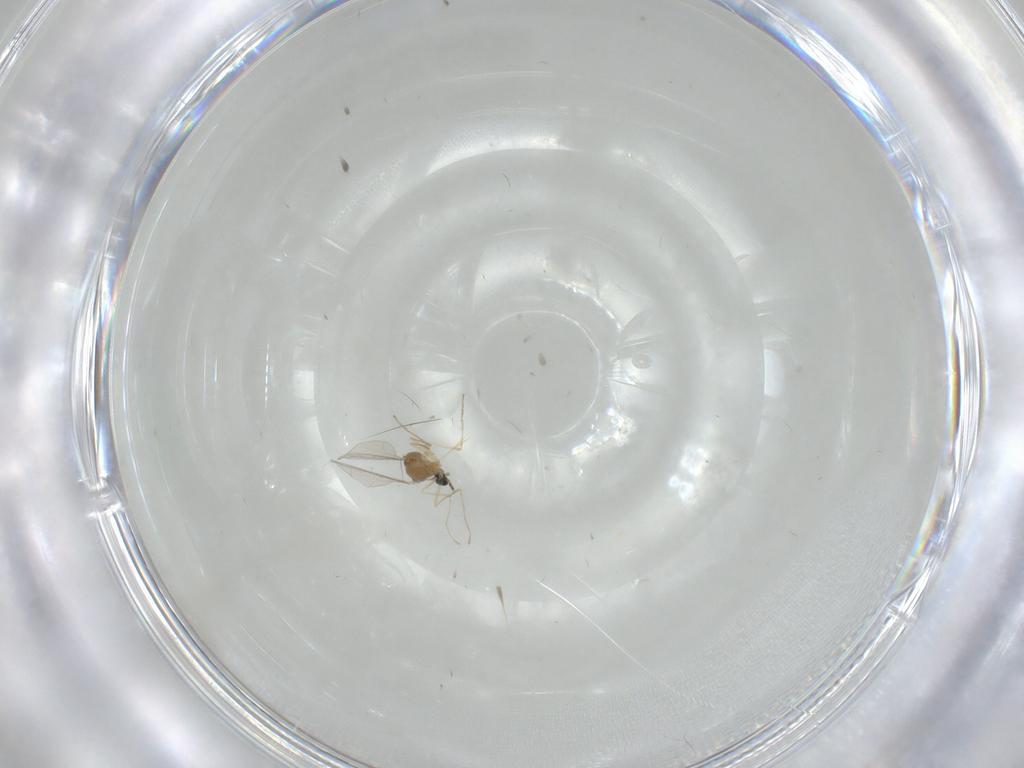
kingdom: Animalia
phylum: Arthropoda
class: Insecta
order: Diptera
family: Cecidomyiidae
